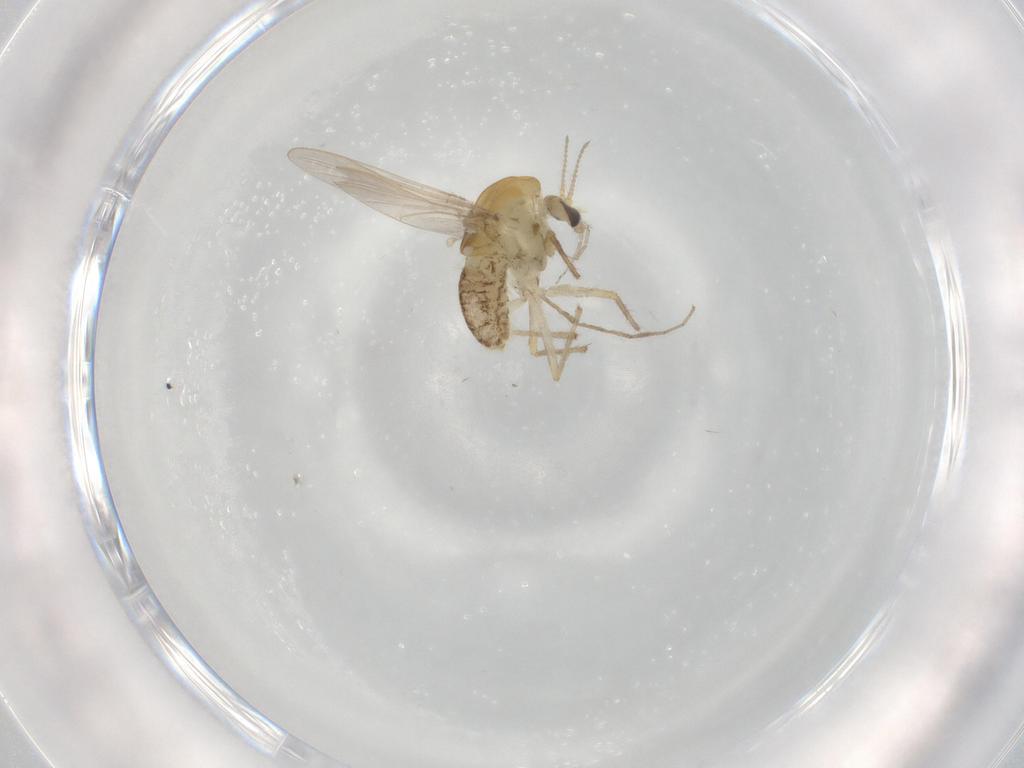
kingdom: Animalia
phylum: Arthropoda
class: Insecta
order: Diptera
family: Chironomidae
